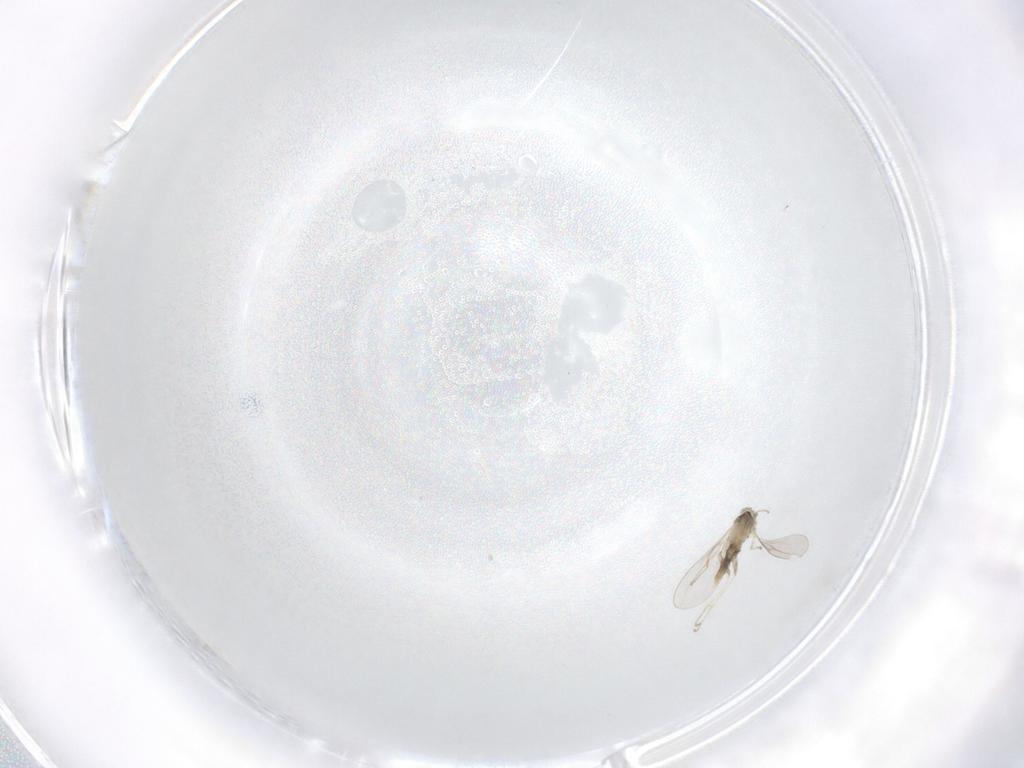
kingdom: Animalia
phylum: Arthropoda
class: Insecta
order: Diptera
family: Cecidomyiidae
